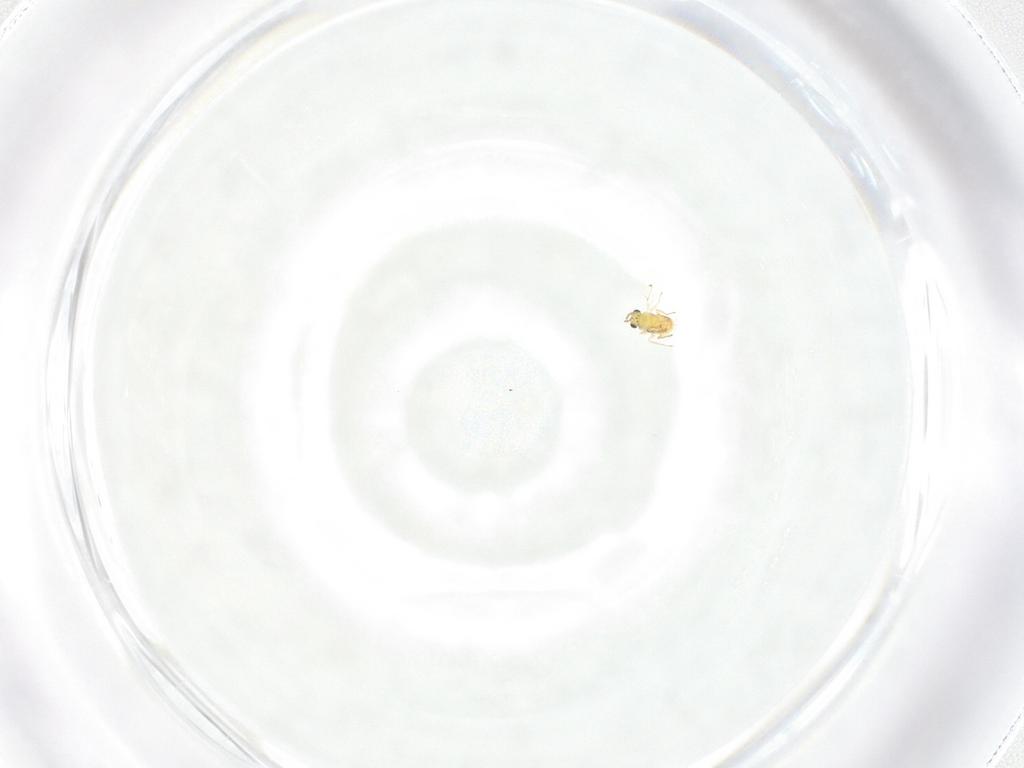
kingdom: Animalia
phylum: Arthropoda
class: Insecta
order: Hymenoptera
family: Trichogrammatidae
